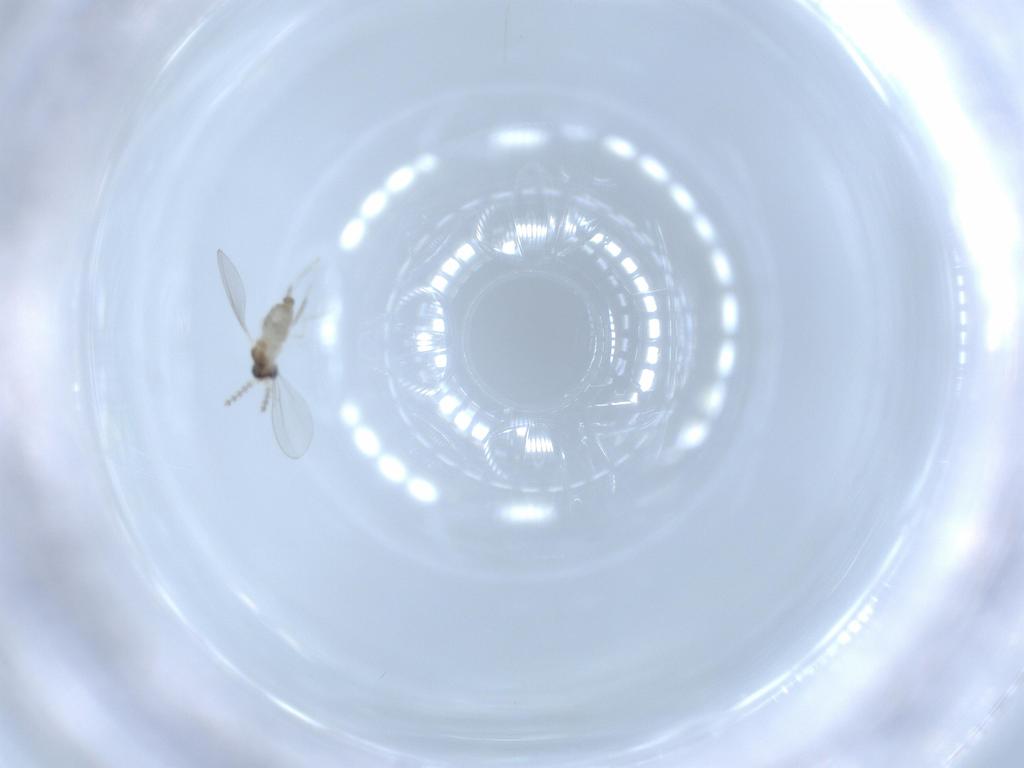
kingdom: Animalia
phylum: Arthropoda
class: Insecta
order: Diptera
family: Cecidomyiidae
